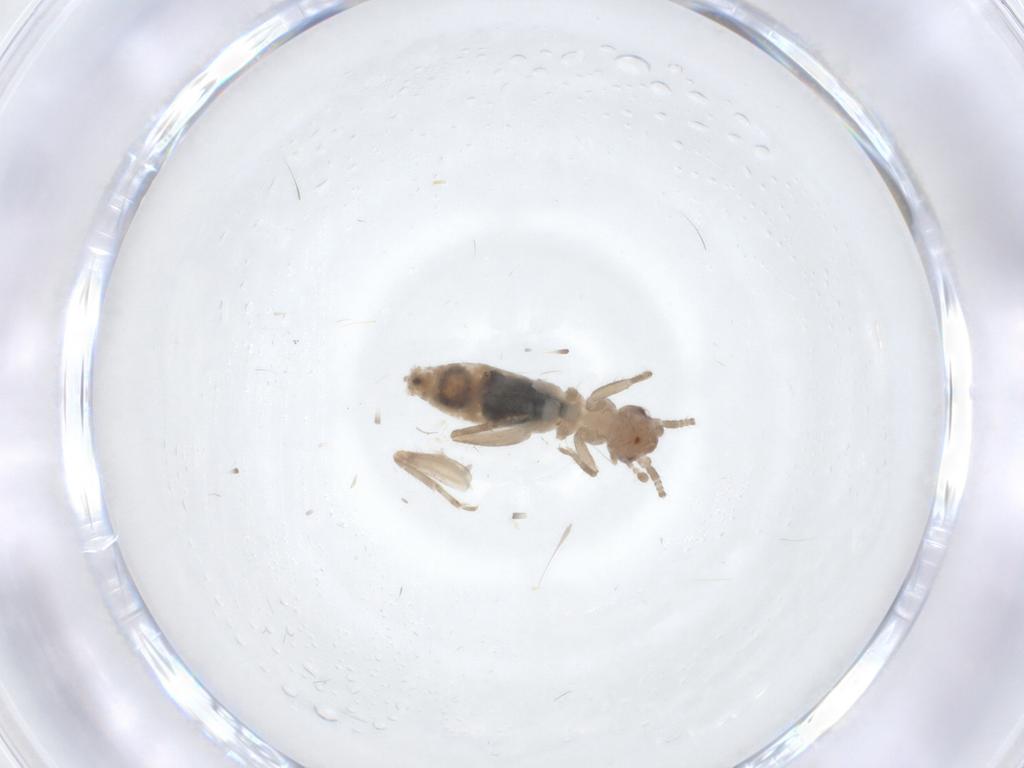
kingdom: Animalia
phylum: Arthropoda
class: Insecta
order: Orthoptera
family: Gryllidae
